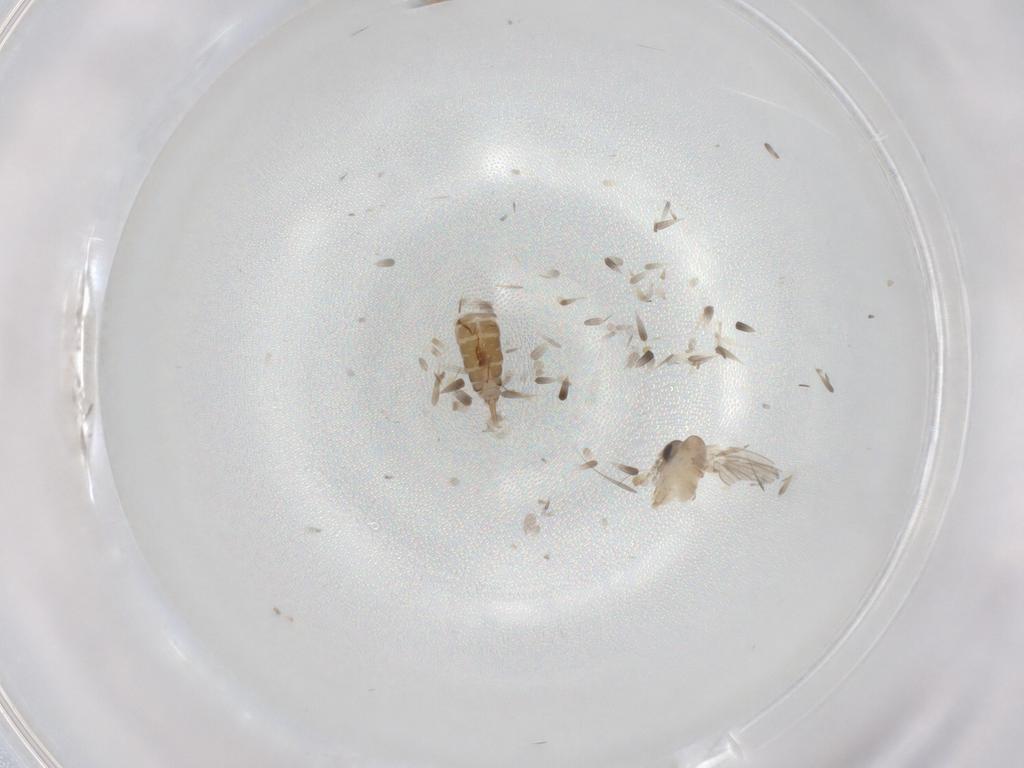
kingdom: Animalia
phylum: Arthropoda
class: Insecta
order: Diptera
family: Psychodidae
